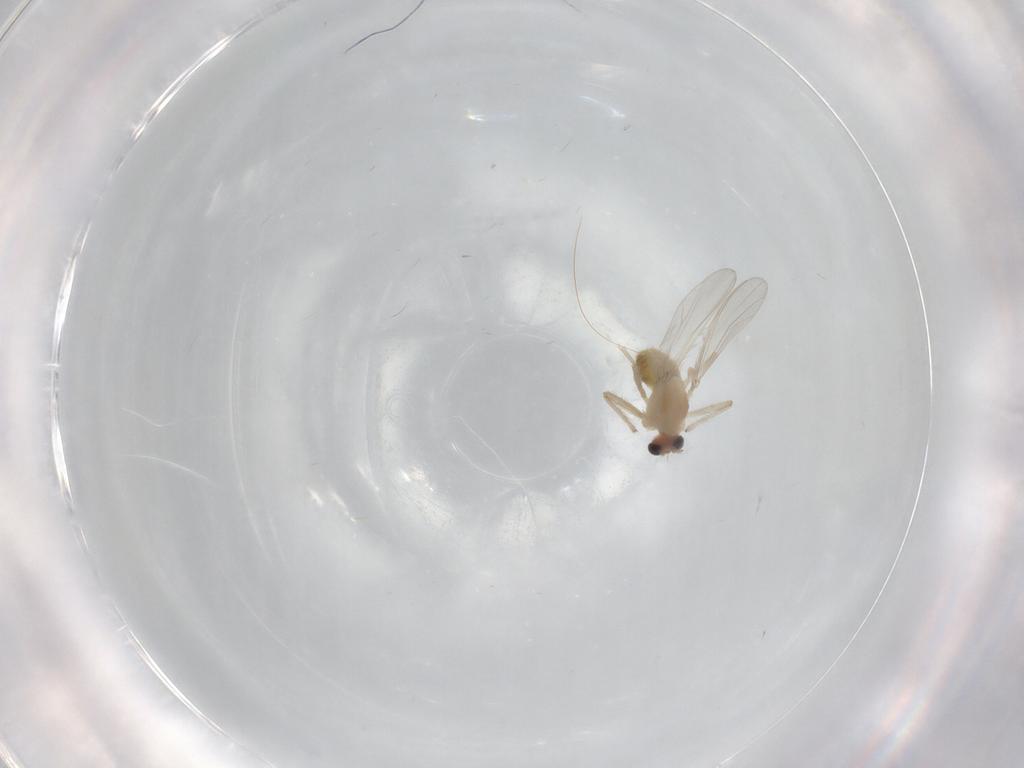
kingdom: Animalia
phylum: Arthropoda
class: Insecta
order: Diptera
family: Chironomidae
